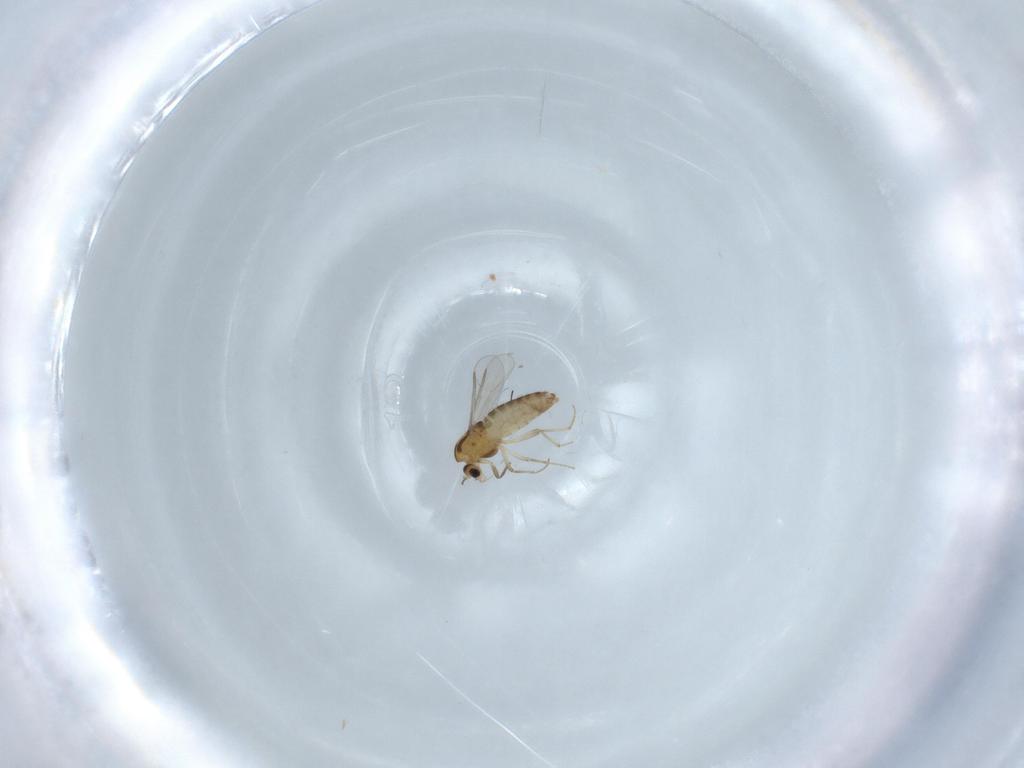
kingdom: Animalia
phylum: Arthropoda
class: Insecta
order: Diptera
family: Chironomidae
